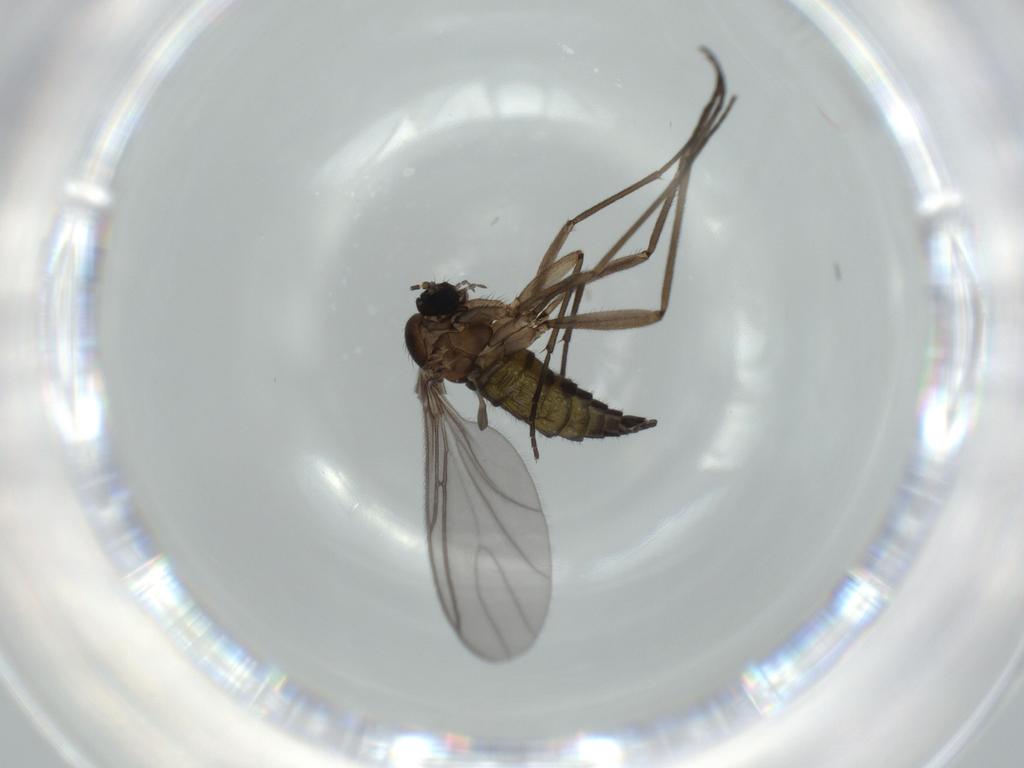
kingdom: Animalia
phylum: Arthropoda
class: Insecta
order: Diptera
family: Sciaridae
